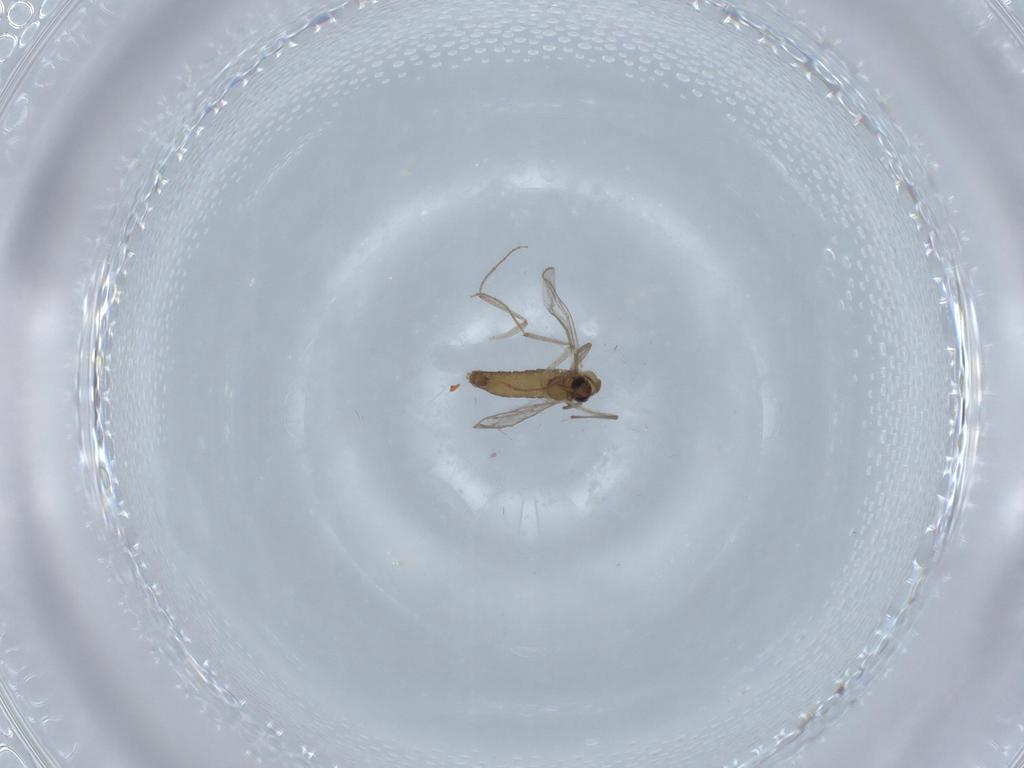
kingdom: Animalia
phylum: Arthropoda
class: Insecta
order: Diptera
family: Chironomidae
